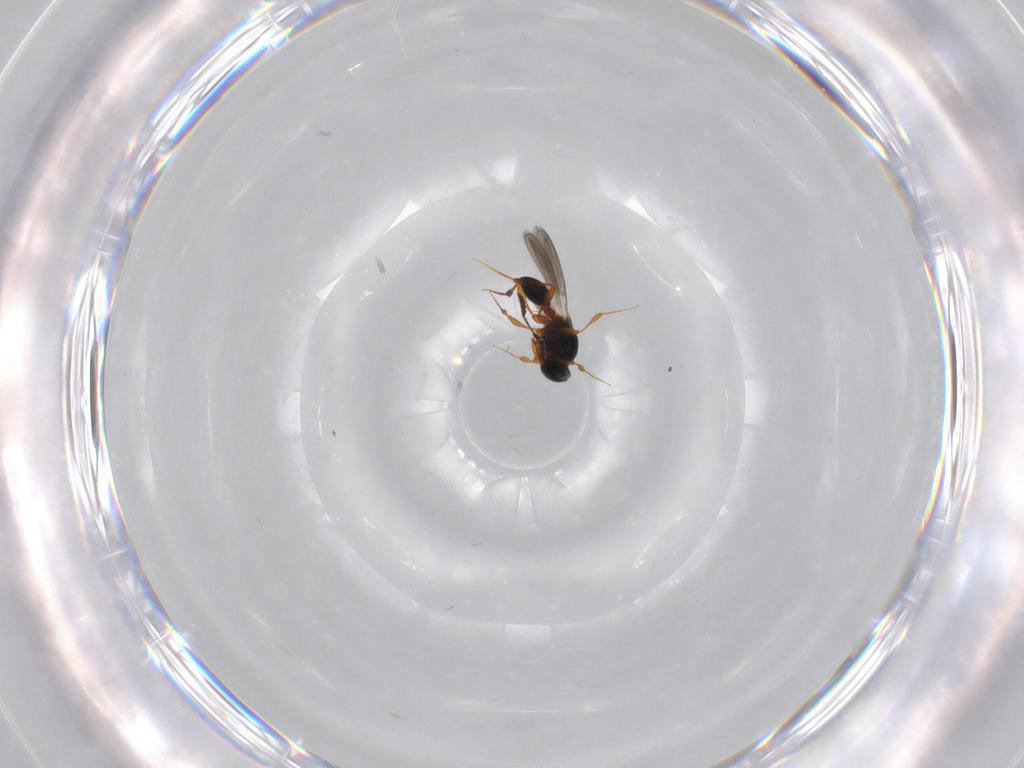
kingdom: Animalia
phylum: Arthropoda
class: Insecta
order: Hymenoptera
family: Platygastridae
